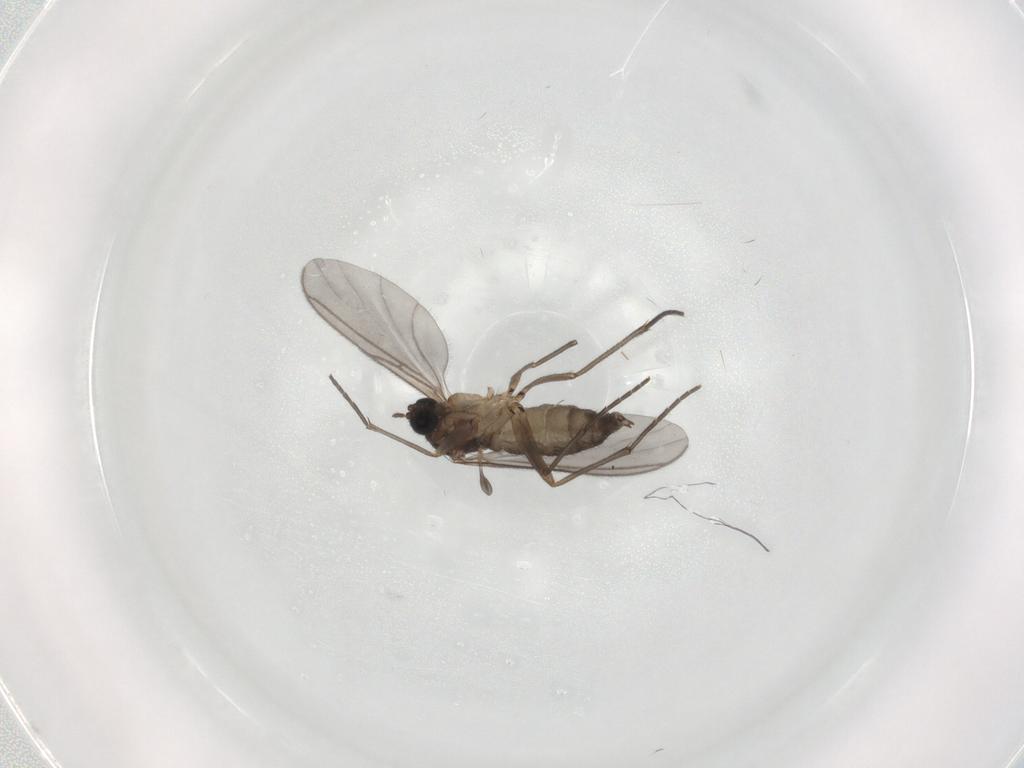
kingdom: Animalia
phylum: Arthropoda
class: Insecta
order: Diptera
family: Sciaridae
